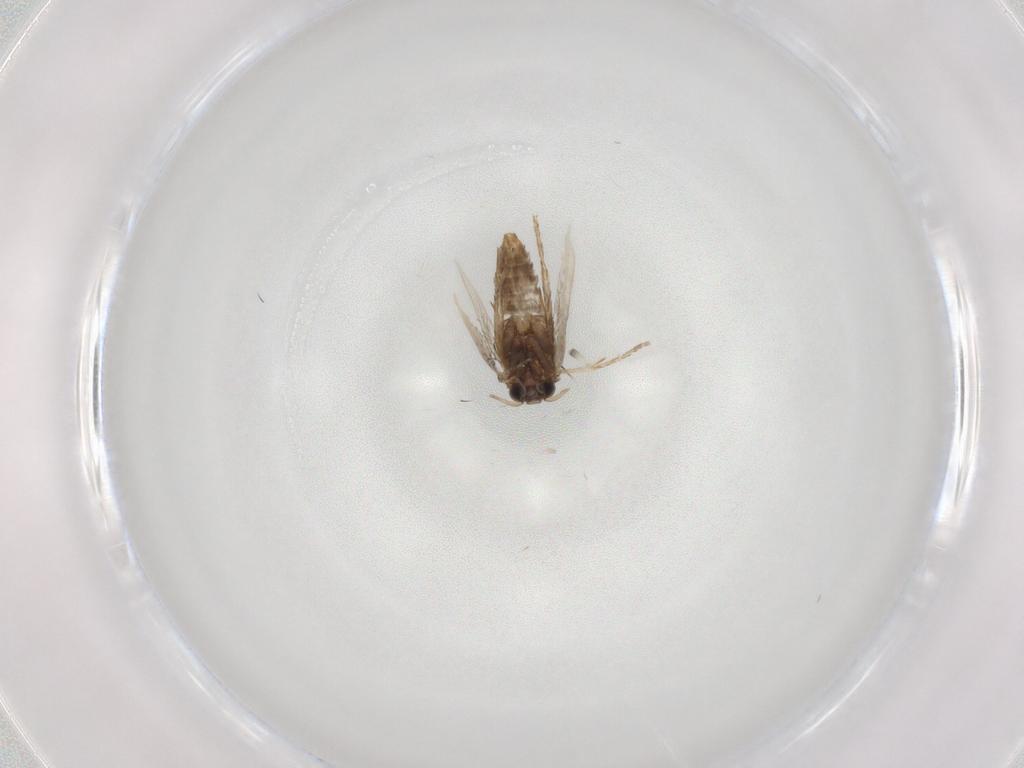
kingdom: Animalia
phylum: Arthropoda
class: Insecta
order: Lepidoptera
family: Nepticulidae
